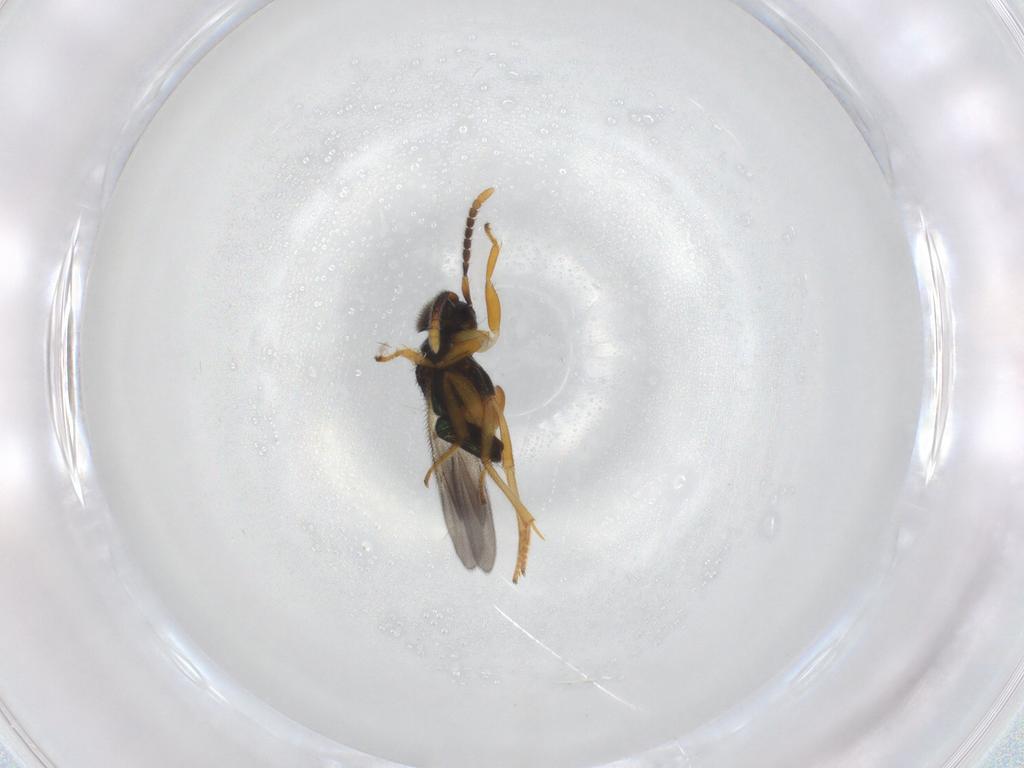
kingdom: Animalia
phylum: Arthropoda
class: Insecta
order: Hymenoptera
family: Encyrtidae
